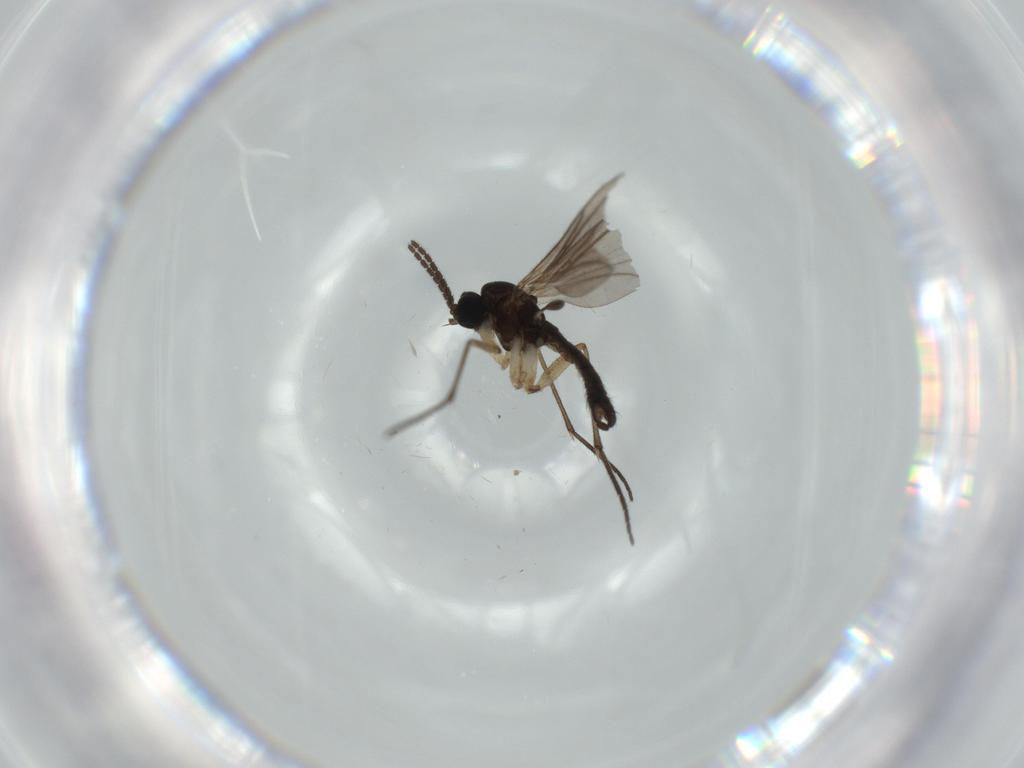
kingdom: Animalia
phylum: Arthropoda
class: Insecta
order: Diptera
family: Sciaridae
